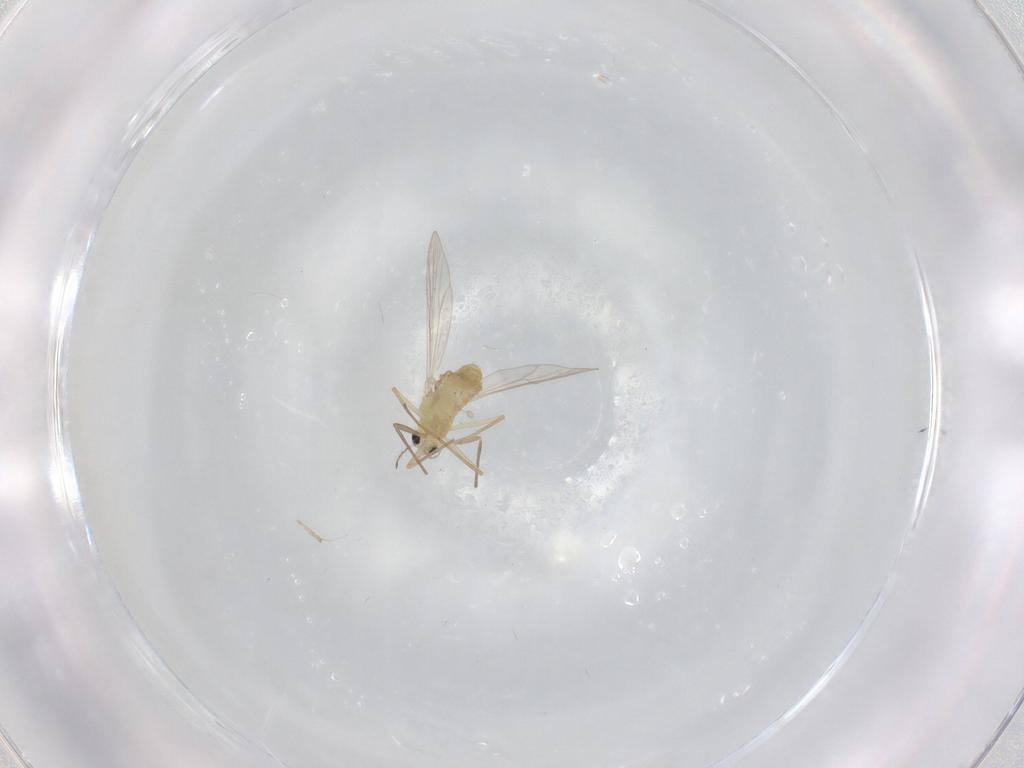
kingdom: Animalia
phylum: Arthropoda
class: Insecta
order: Diptera
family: Chironomidae
